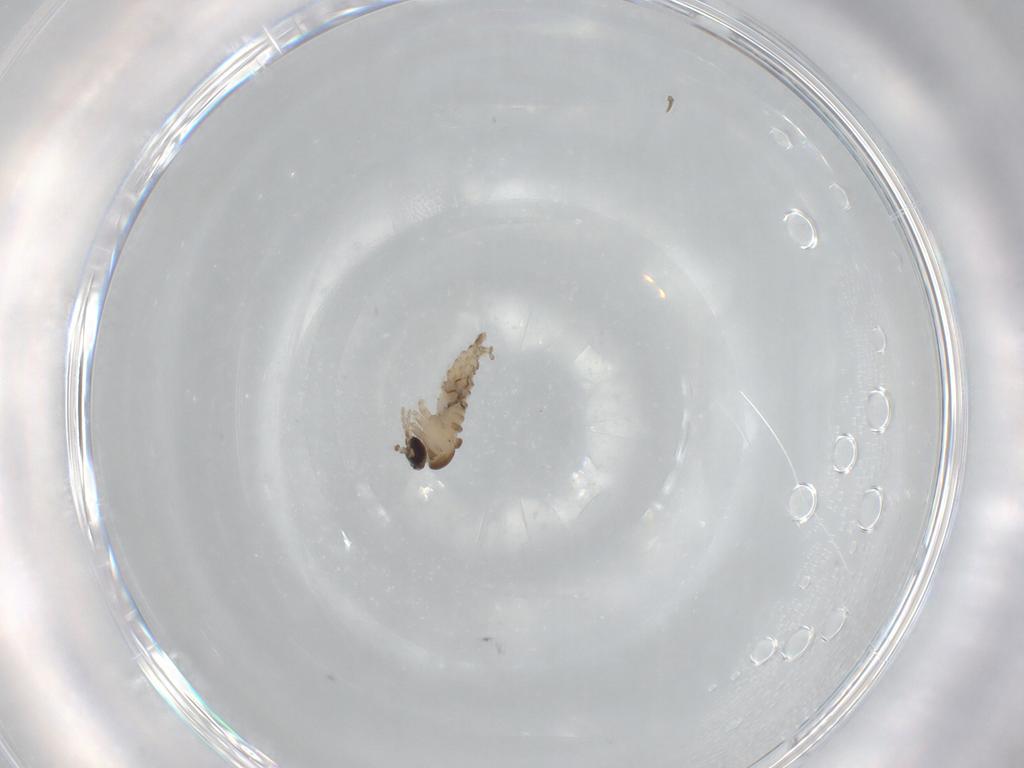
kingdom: Animalia
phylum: Arthropoda
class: Insecta
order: Diptera
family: Psychodidae
